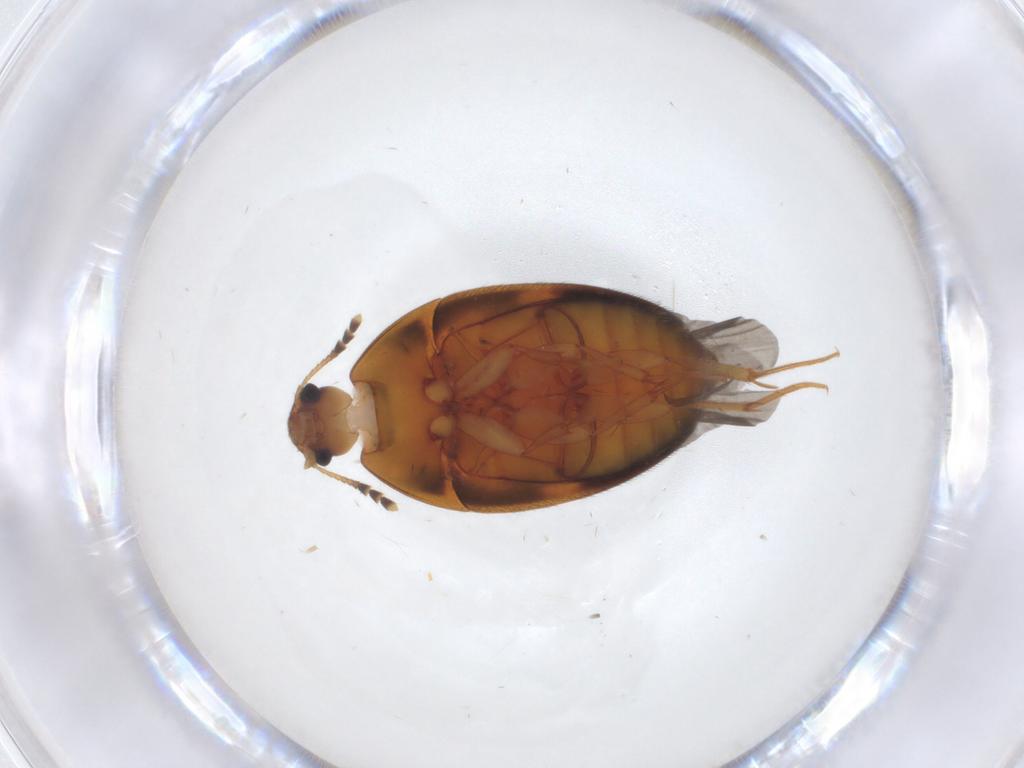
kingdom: Animalia
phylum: Arthropoda
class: Insecta
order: Coleoptera
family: Mycetophagidae
